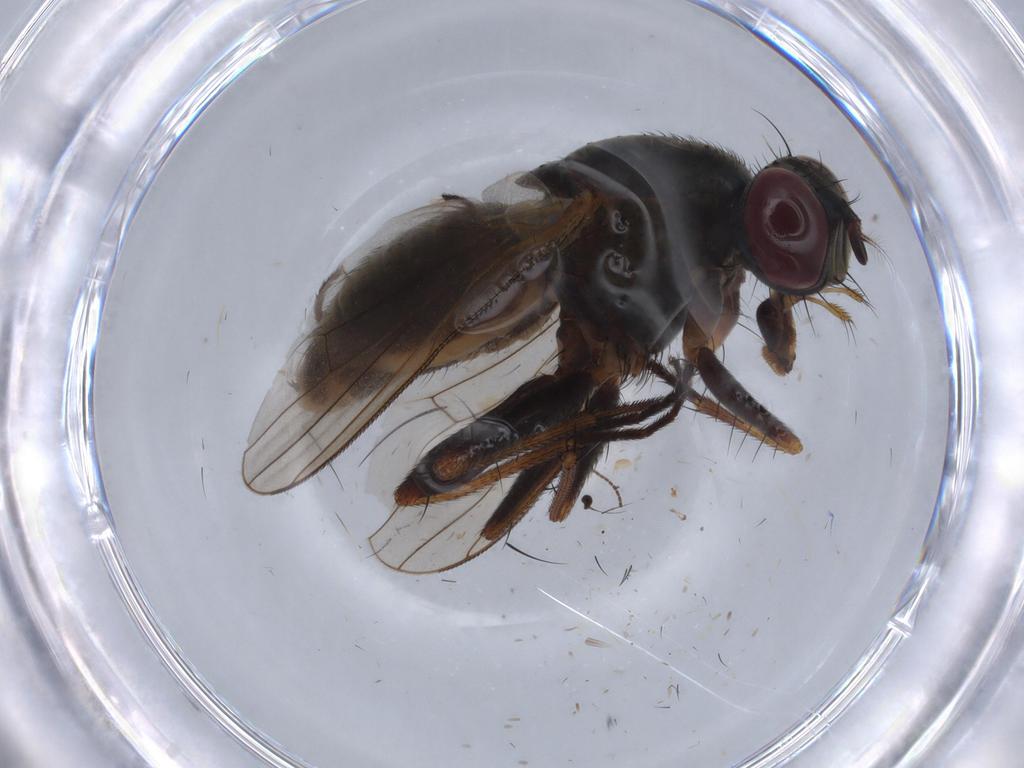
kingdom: Animalia
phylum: Arthropoda
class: Insecta
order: Diptera
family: Dolichopodidae
